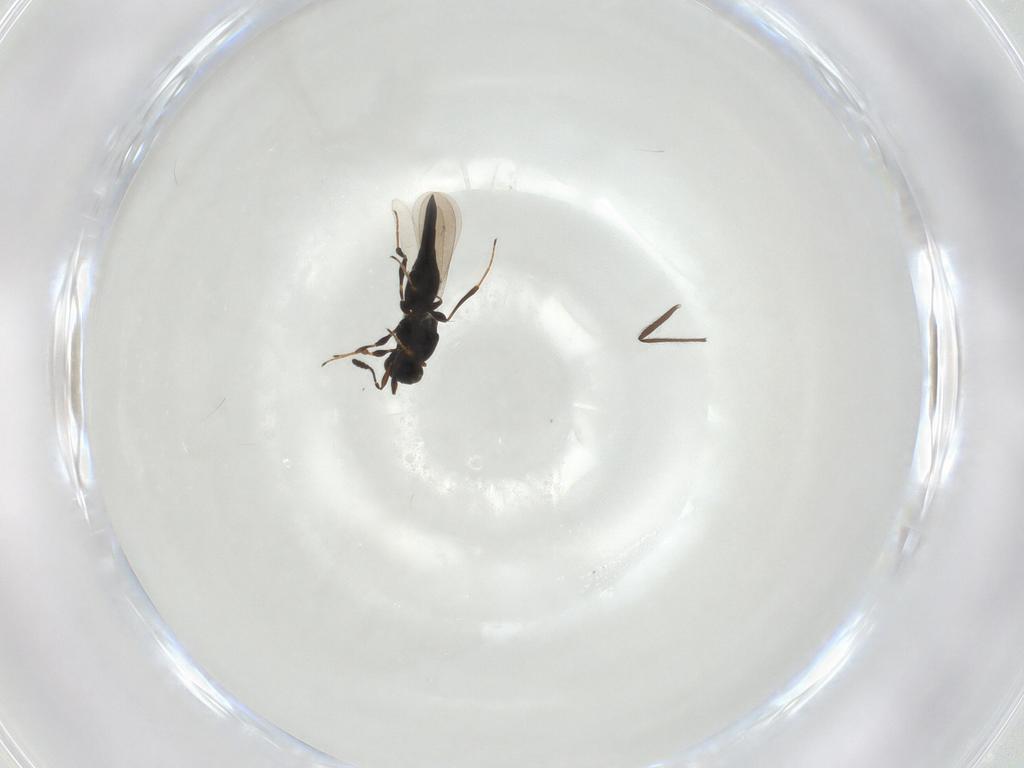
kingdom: Animalia
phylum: Arthropoda
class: Insecta
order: Hymenoptera
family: Platygastridae
